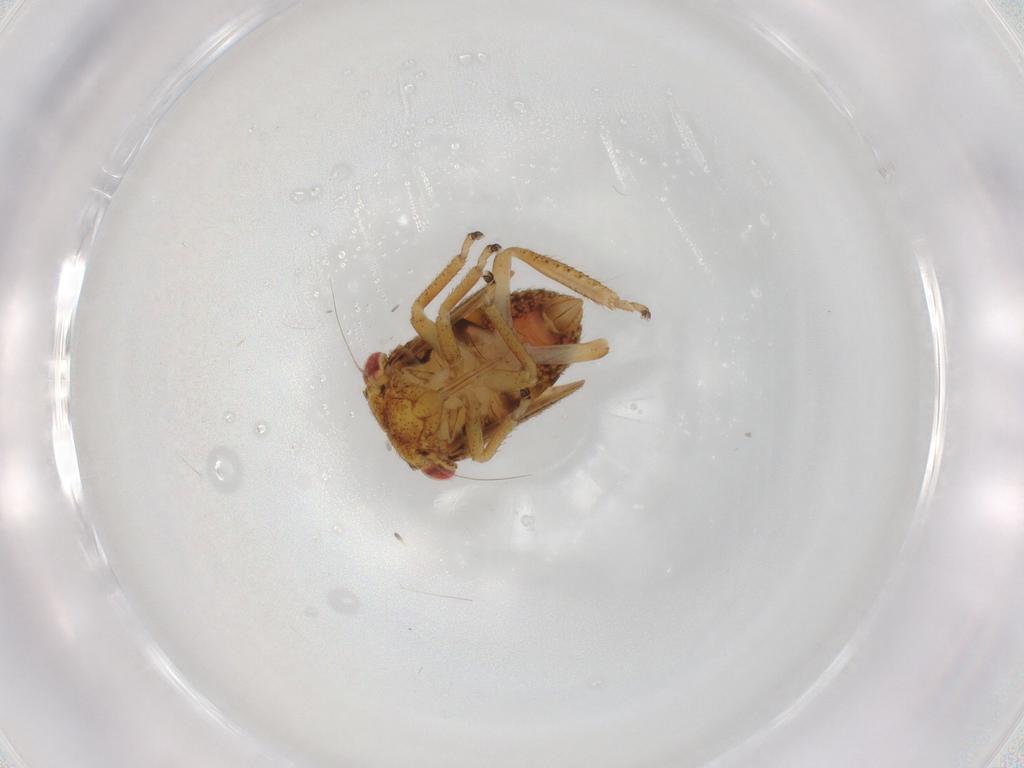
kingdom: Animalia
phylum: Arthropoda
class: Insecta
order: Hemiptera
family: Cicadellidae
